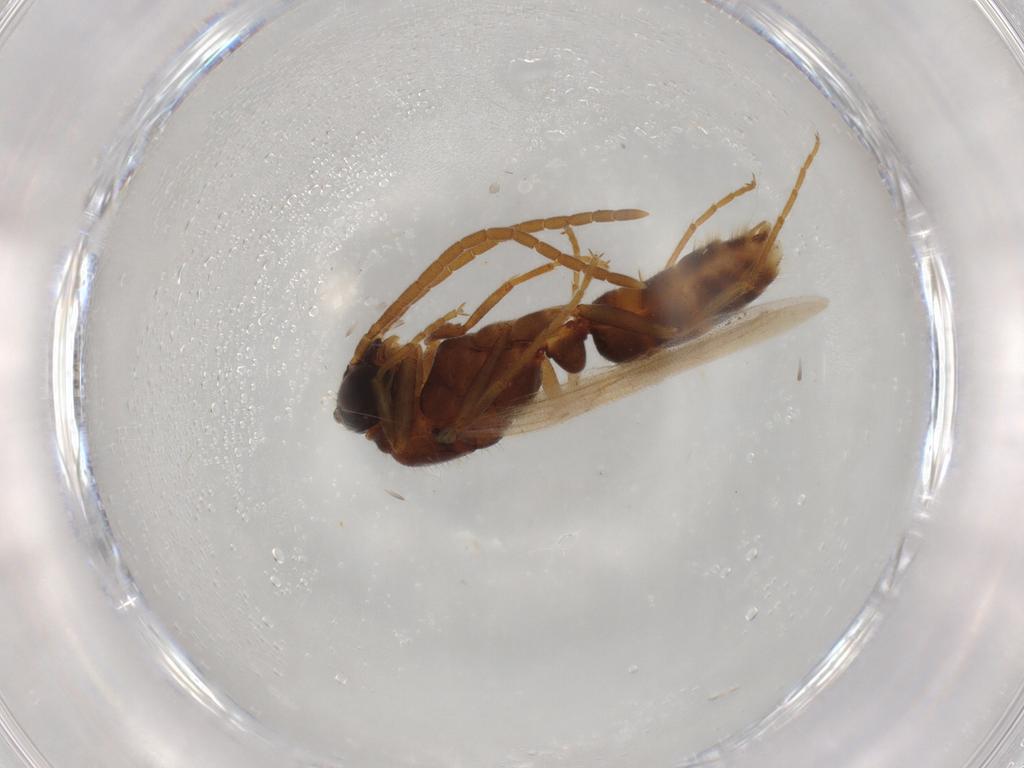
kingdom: Animalia
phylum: Arthropoda
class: Insecta
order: Hymenoptera
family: Formicidae
